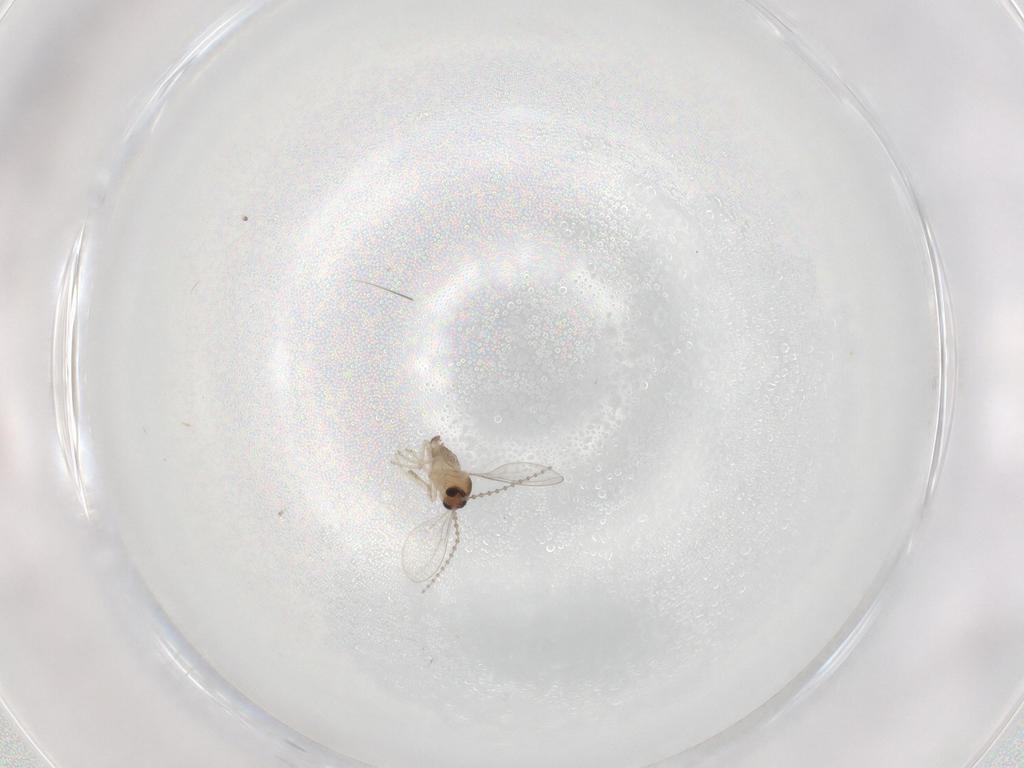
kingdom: Animalia
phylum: Arthropoda
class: Insecta
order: Diptera
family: Cecidomyiidae
